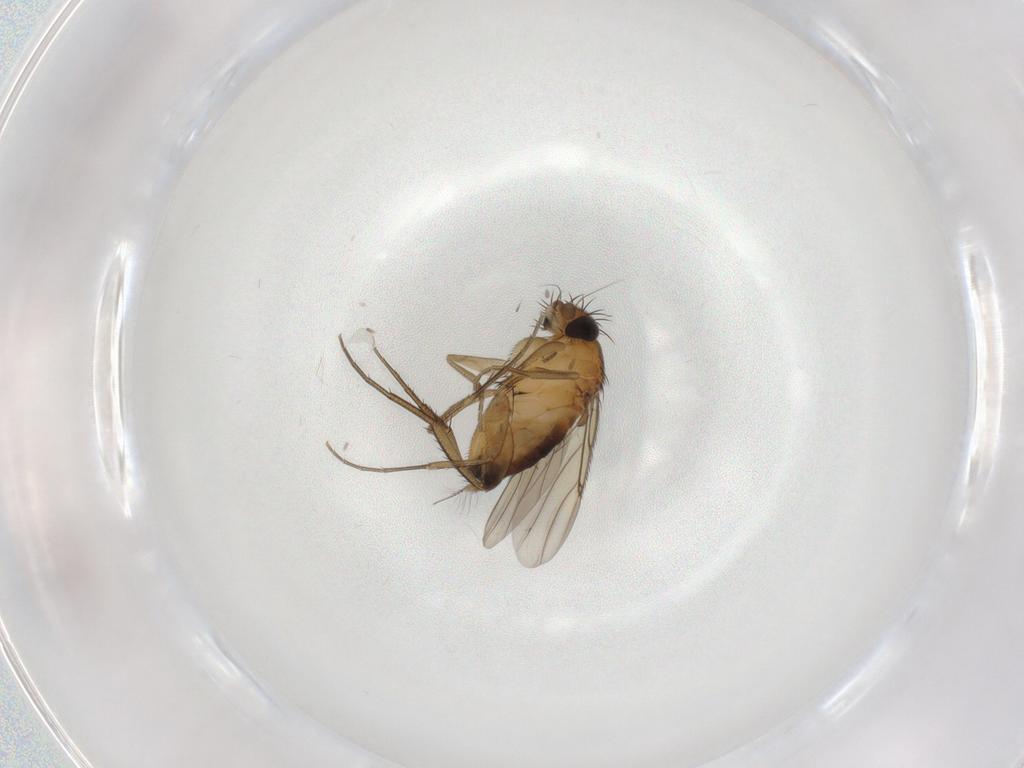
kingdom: Animalia
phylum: Arthropoda
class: Insecta
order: Diptera
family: Phoridae
